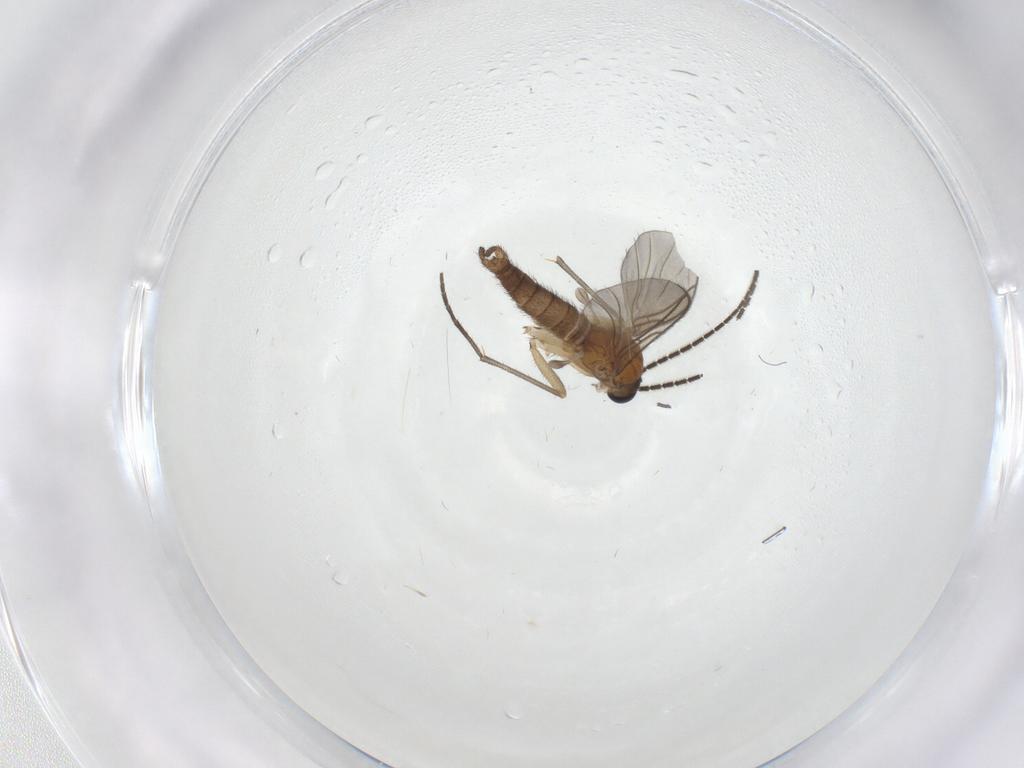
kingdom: Animalia
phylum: Arthropoda
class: Insecta
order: Diptera
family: Sciaridae
